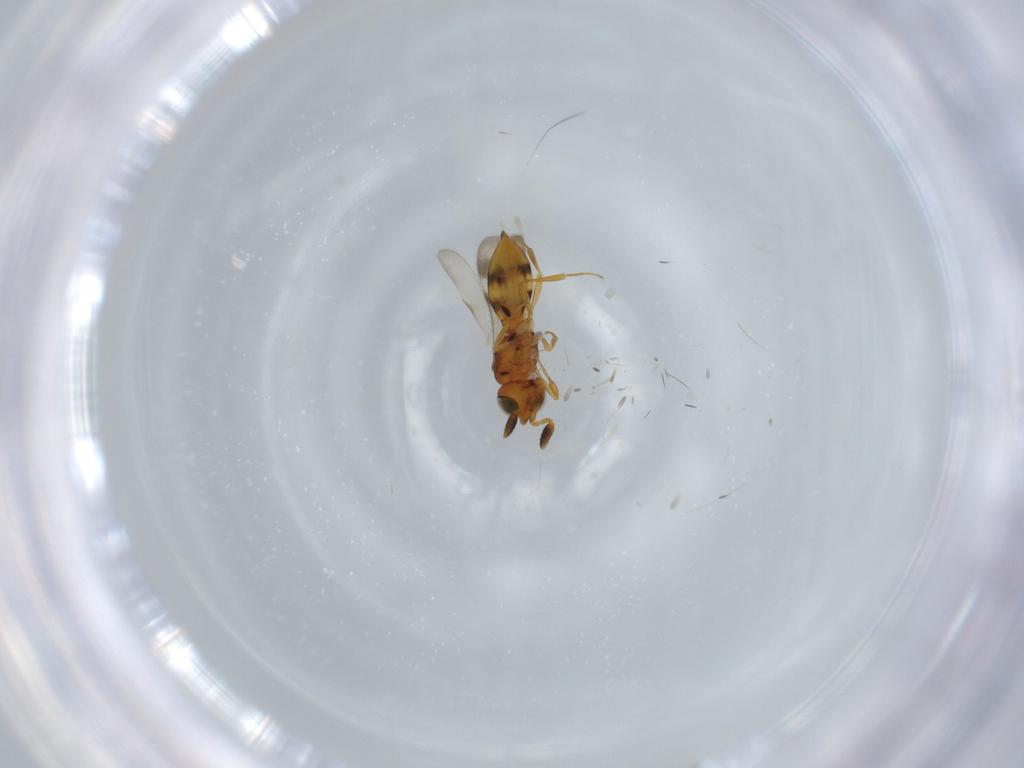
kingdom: Animalia
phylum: Arthropoda
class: Insecta
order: Hymenoptera
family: Scelionidae
